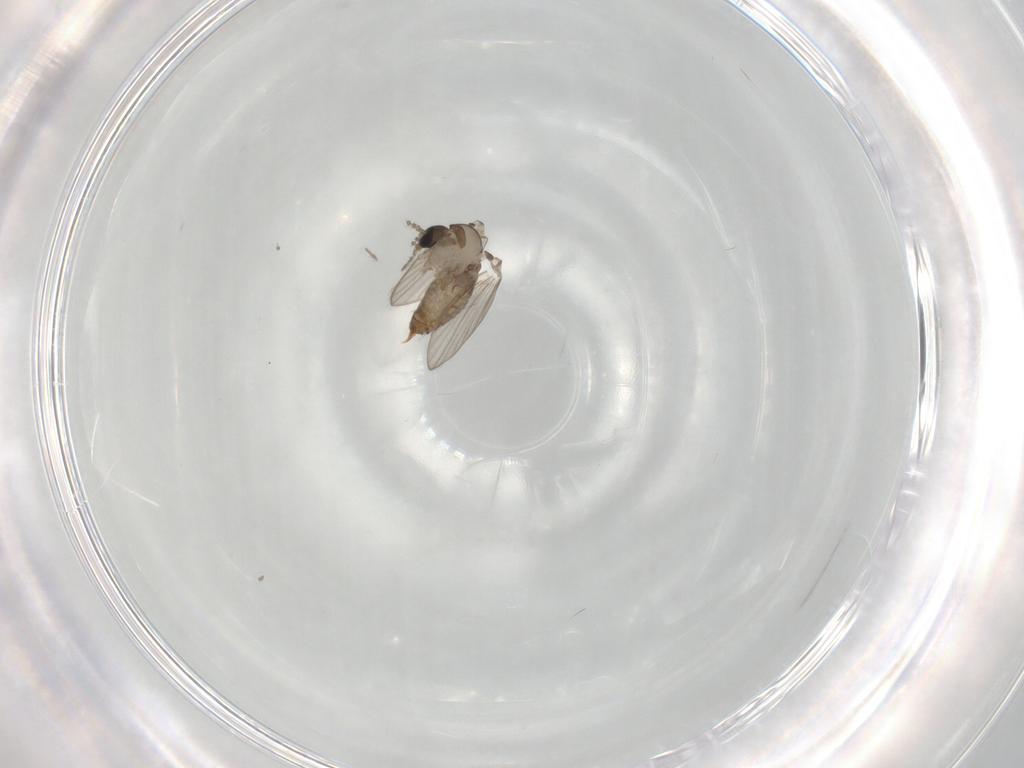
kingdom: Animalia
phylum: Arthropoda
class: Insecta
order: Diptera
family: Psychodidae
